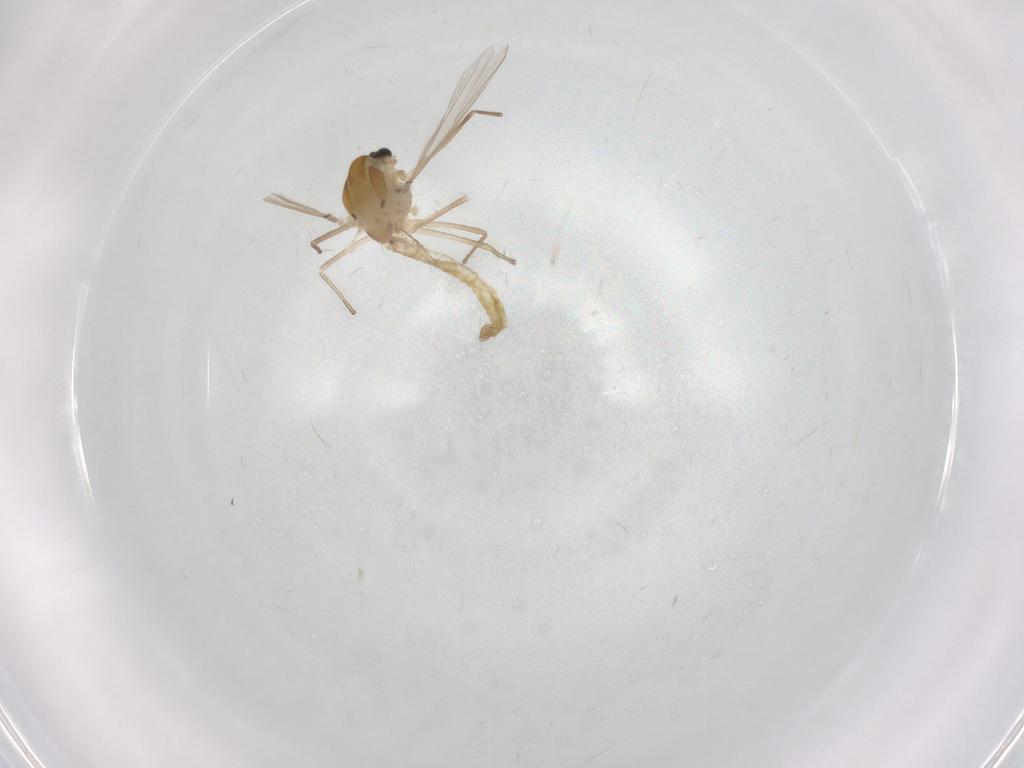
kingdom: Animalia
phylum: Arthropoda
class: Insecta
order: Diptera
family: Chironomidae
